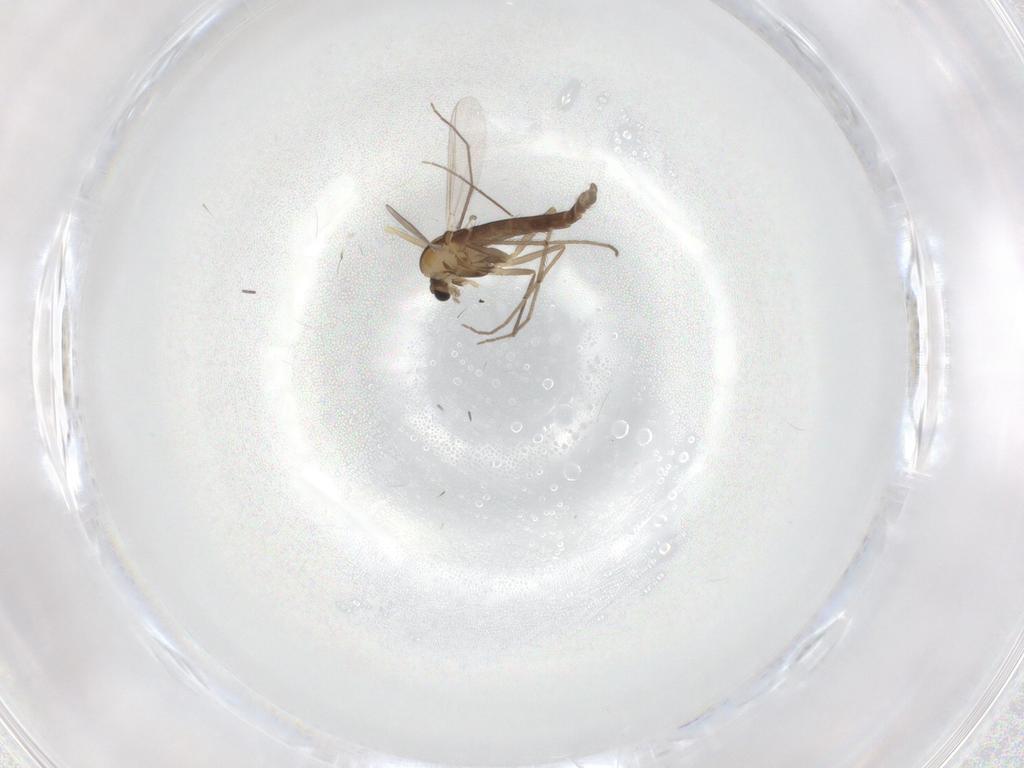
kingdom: Animalia
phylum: Arthropoda
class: Insecta
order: Diptera
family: Chironomidae
